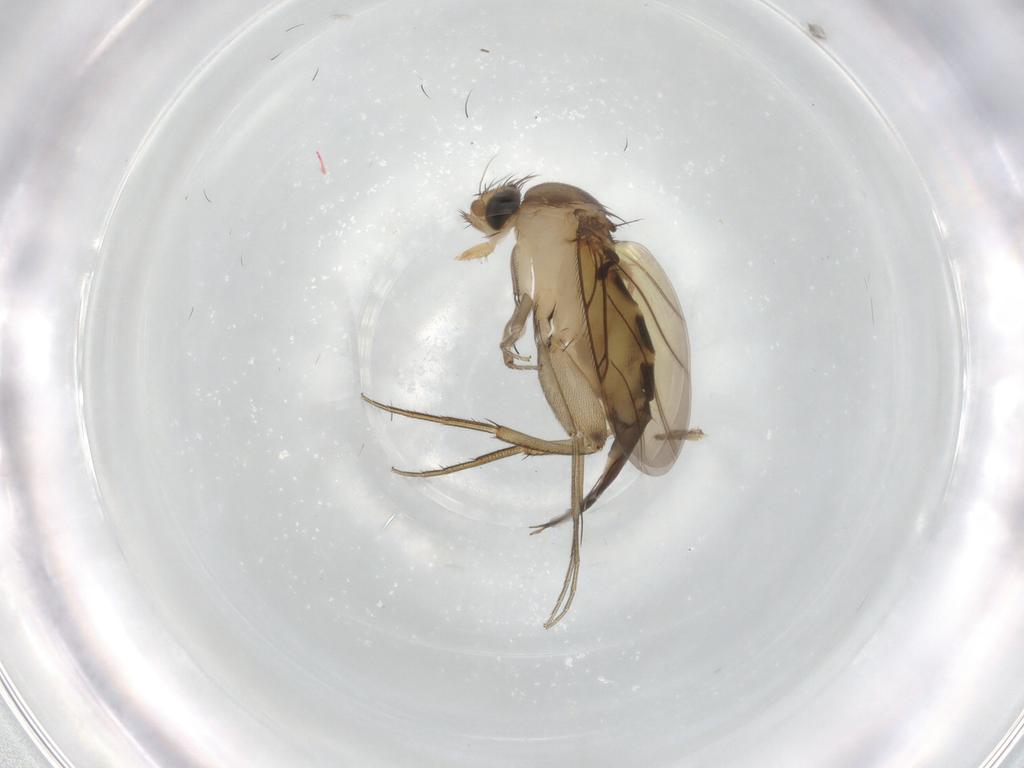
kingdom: Animalia
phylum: Arthropoda
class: Insecta
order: Diptera
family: Phoridae
